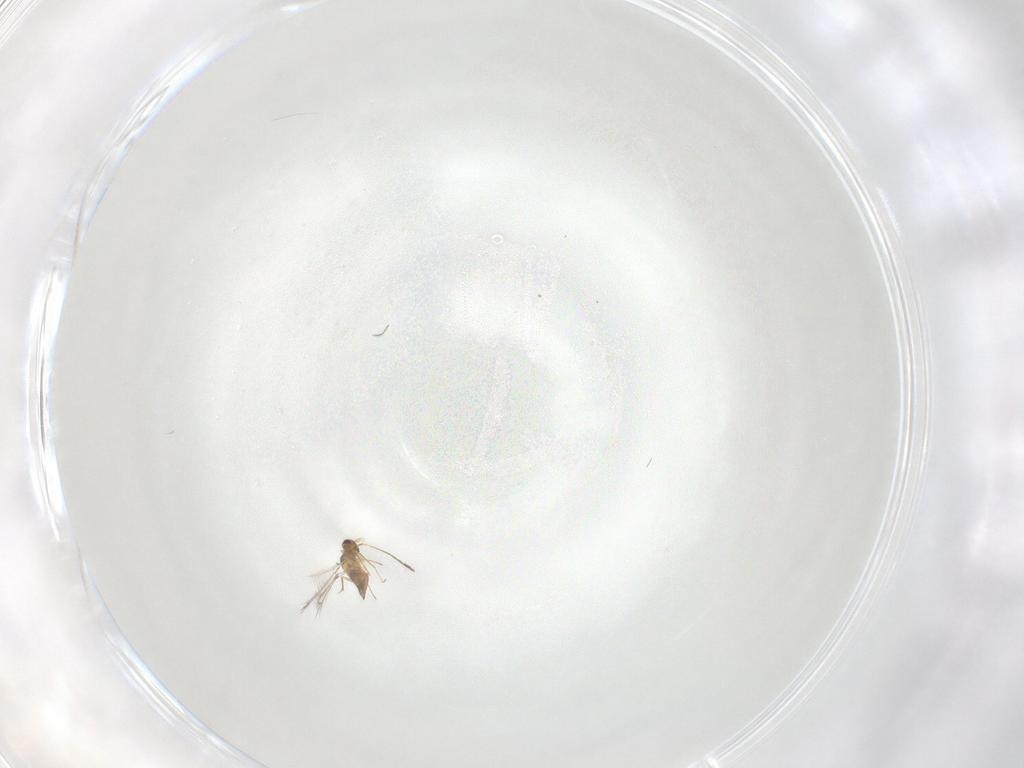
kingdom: Animalia
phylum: Arthropoda
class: Insecta
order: Hymenoptera
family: Mymaridae
